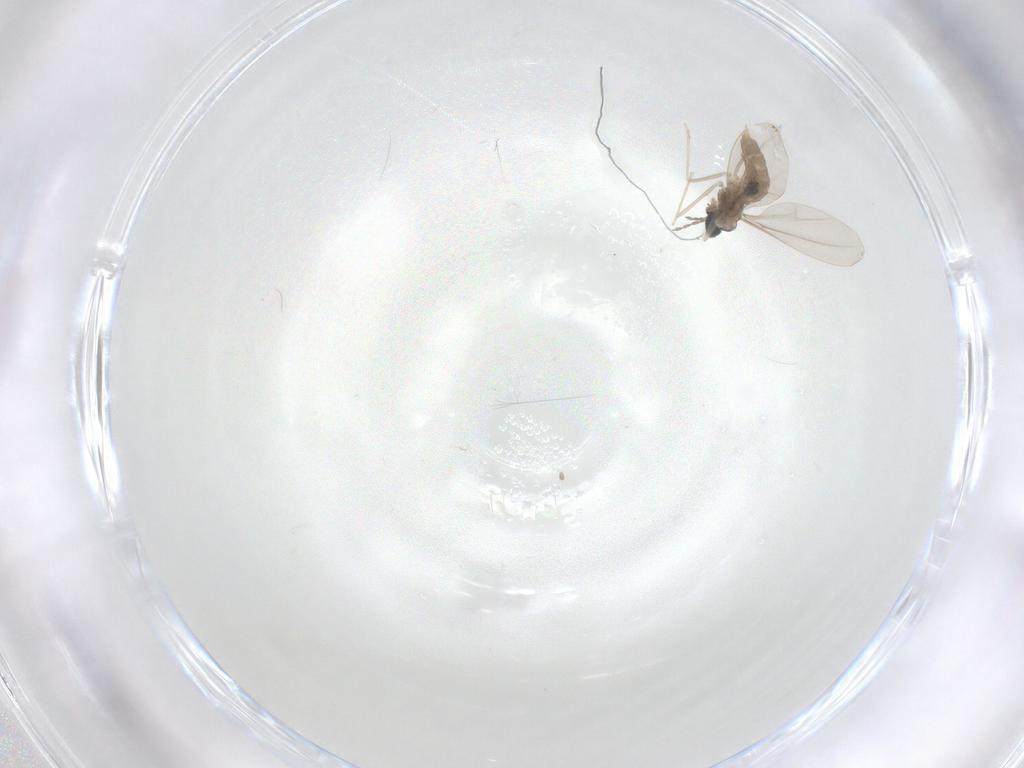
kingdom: Animalia
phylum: Arthropoda
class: Insecta
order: Diptera
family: Cecidomyiidae
